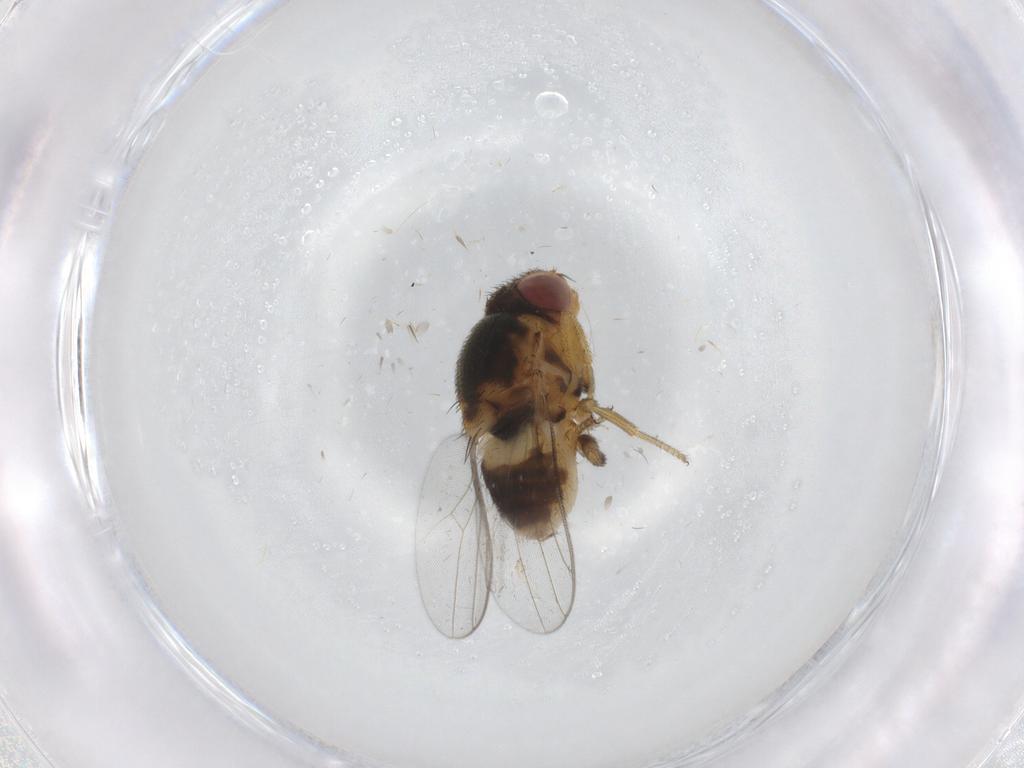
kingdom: Animalia
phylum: Arthropoda
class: Insecta
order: Diptera
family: Chloropidae
